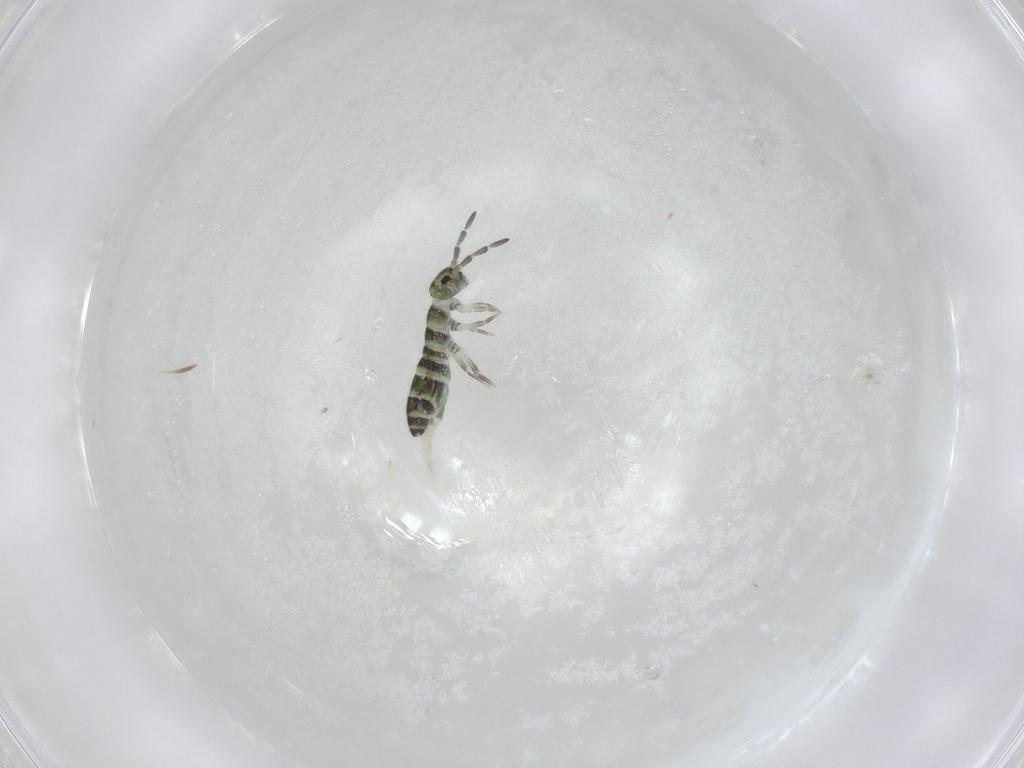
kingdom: Animalia
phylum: Arthropoda
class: Collembola
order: Entomobryomorpha
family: Isotomidae
